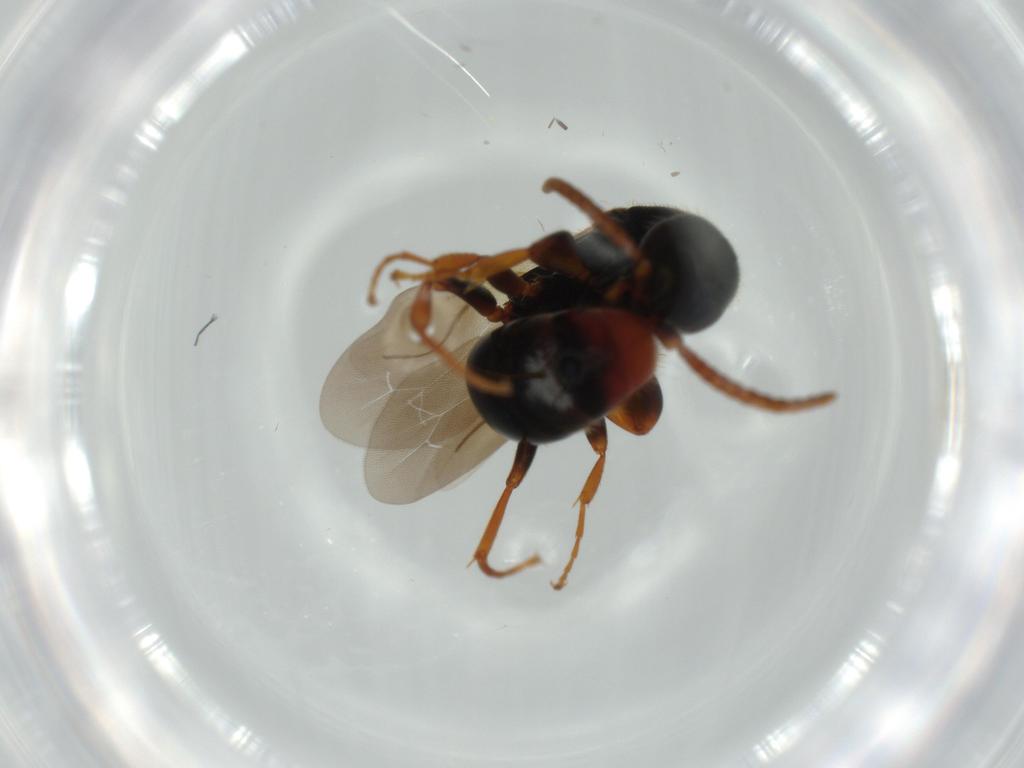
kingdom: Animalia
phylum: Arthropoda
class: Insecta
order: Hymenoptera
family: Bethylidae
